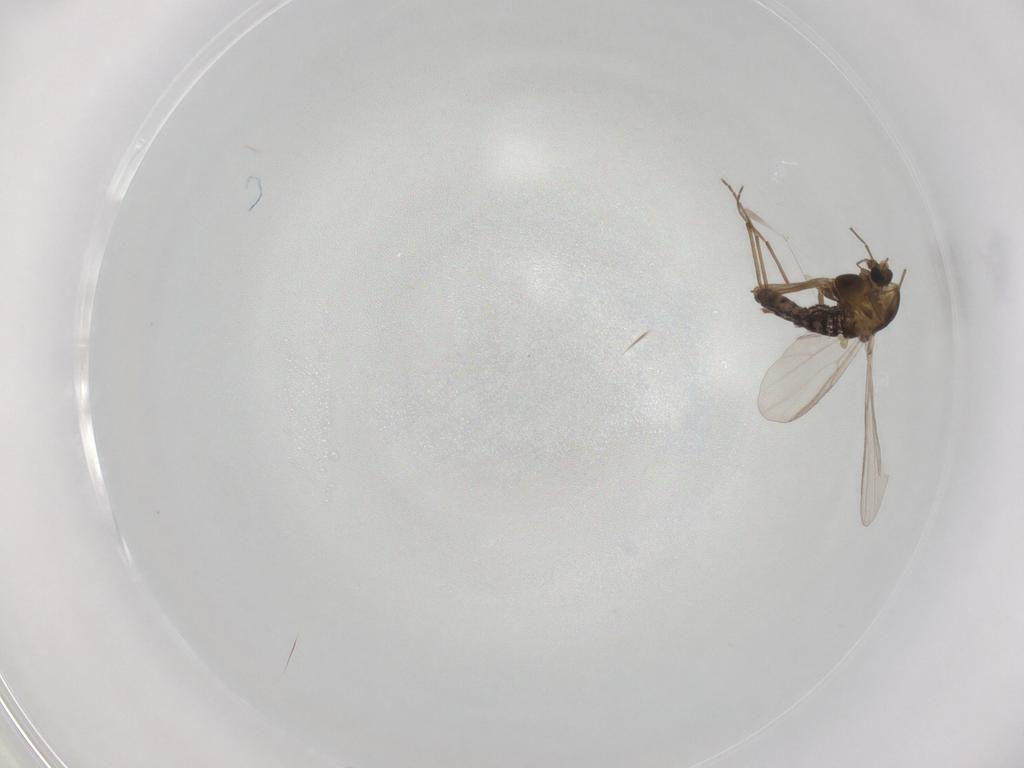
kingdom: Animalia
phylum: Arthropoda
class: Insecta
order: Diptera
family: Chironomidae
